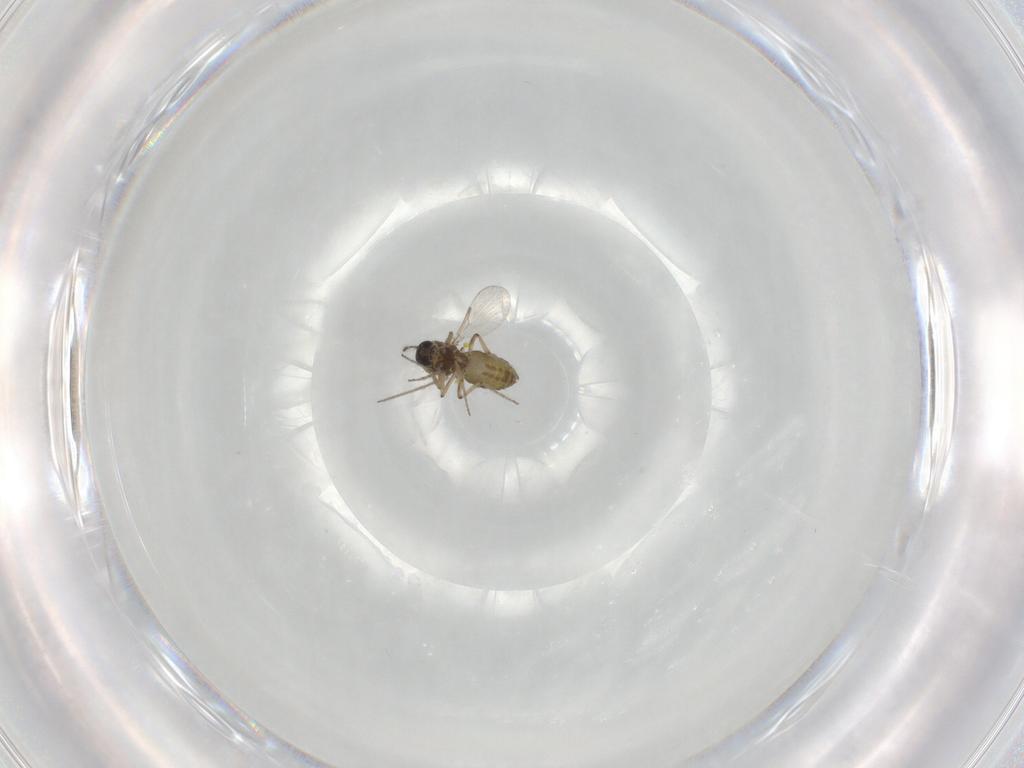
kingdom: Animalia
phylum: Arthropoda
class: Insecta
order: Diptera
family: Ceratopogonidae
